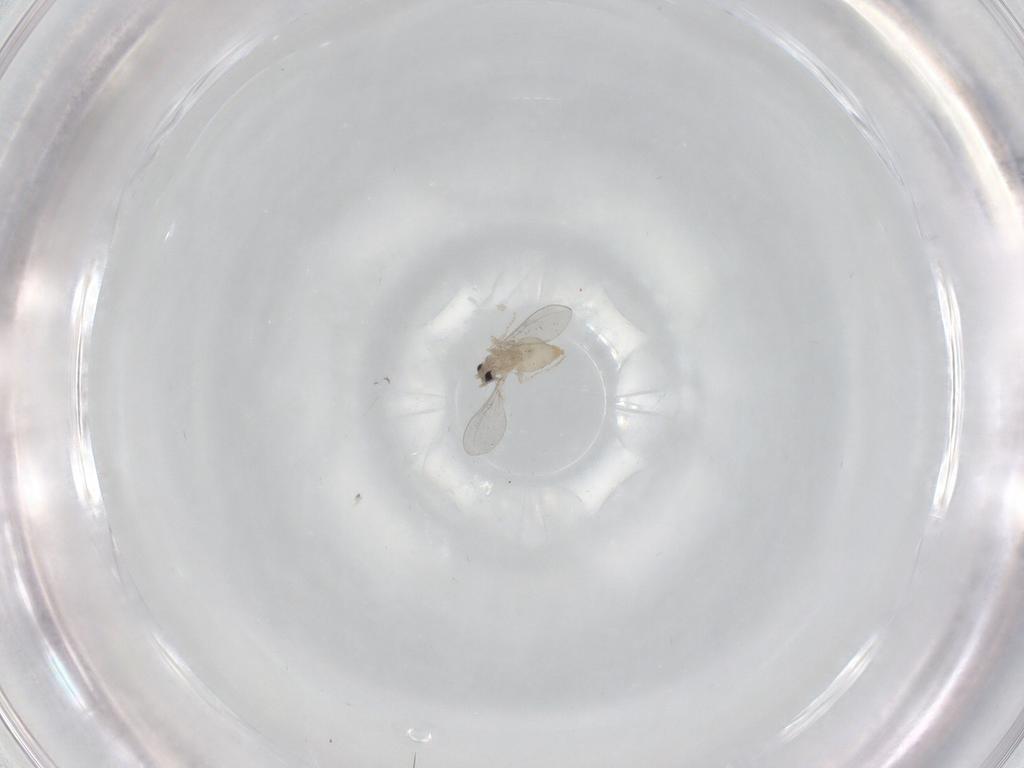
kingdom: Animalia
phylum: Arthropoda
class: Insecta
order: Diptera
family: Cecidomyiidae
